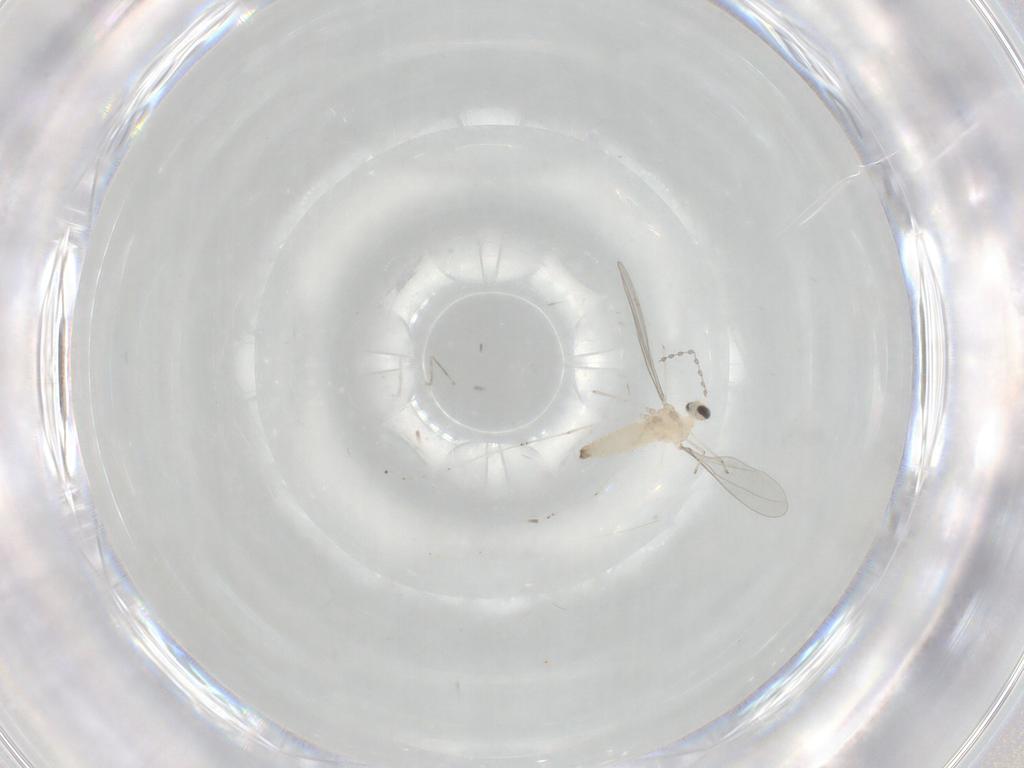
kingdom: Animalia
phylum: Arthropoda
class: Insecta
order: Diptera
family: Cecidomyiidae
